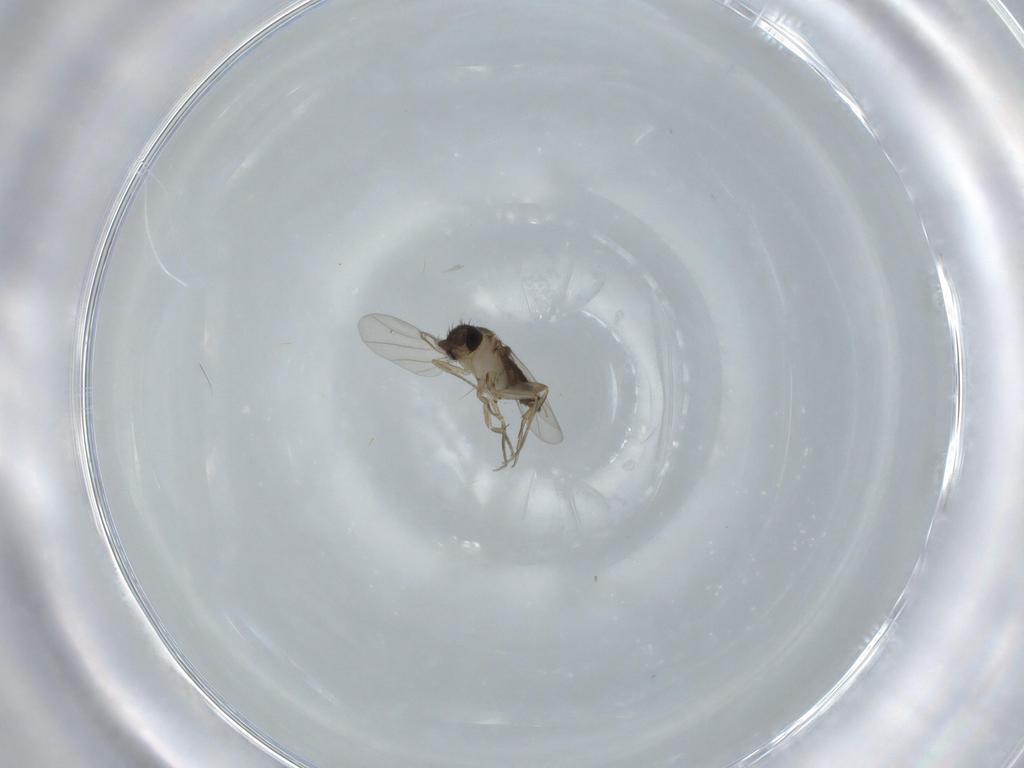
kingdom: Animalia
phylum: Arthropoda
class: Insecta
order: Diptera
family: Phoridae
